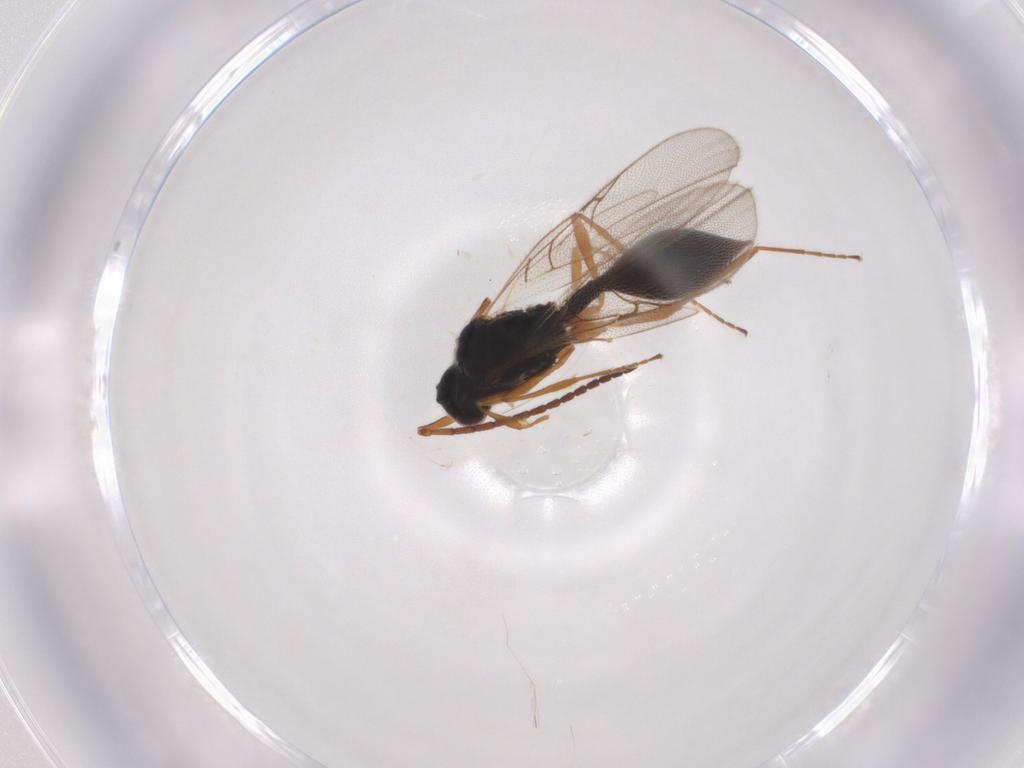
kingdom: Animalia
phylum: Arthropoda
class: Insecta
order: Hymenoptera
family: Diapriidae
